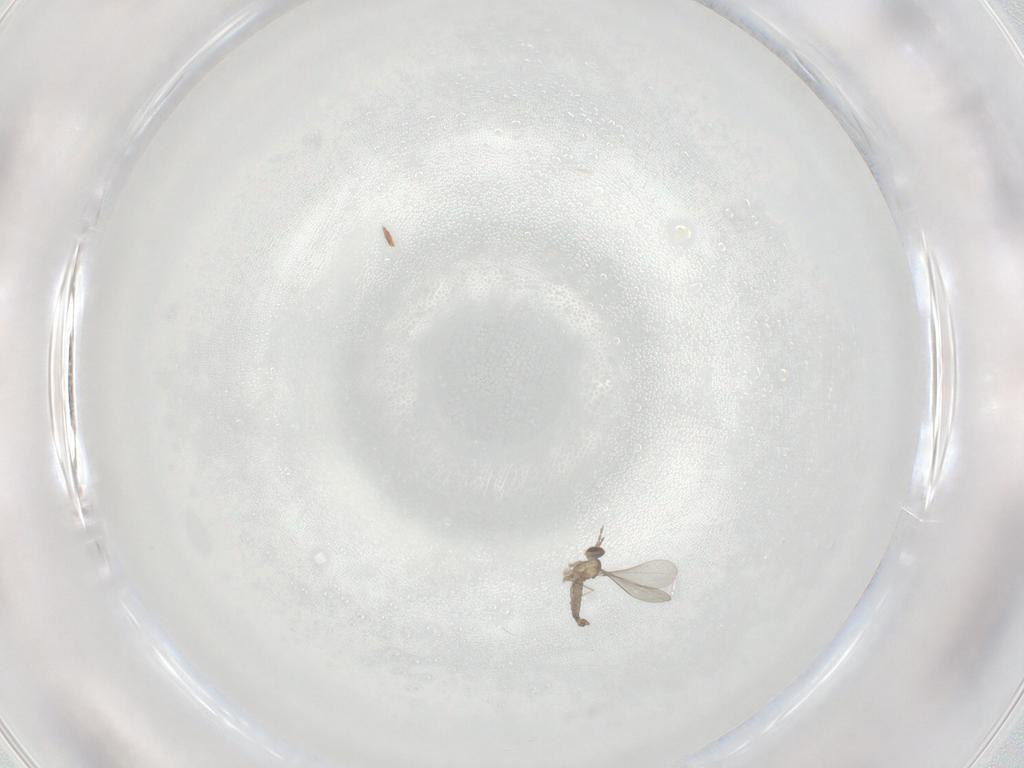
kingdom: Animalia
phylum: Arthropoda
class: Insecta
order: Diptera
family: Cecidomyiidae
